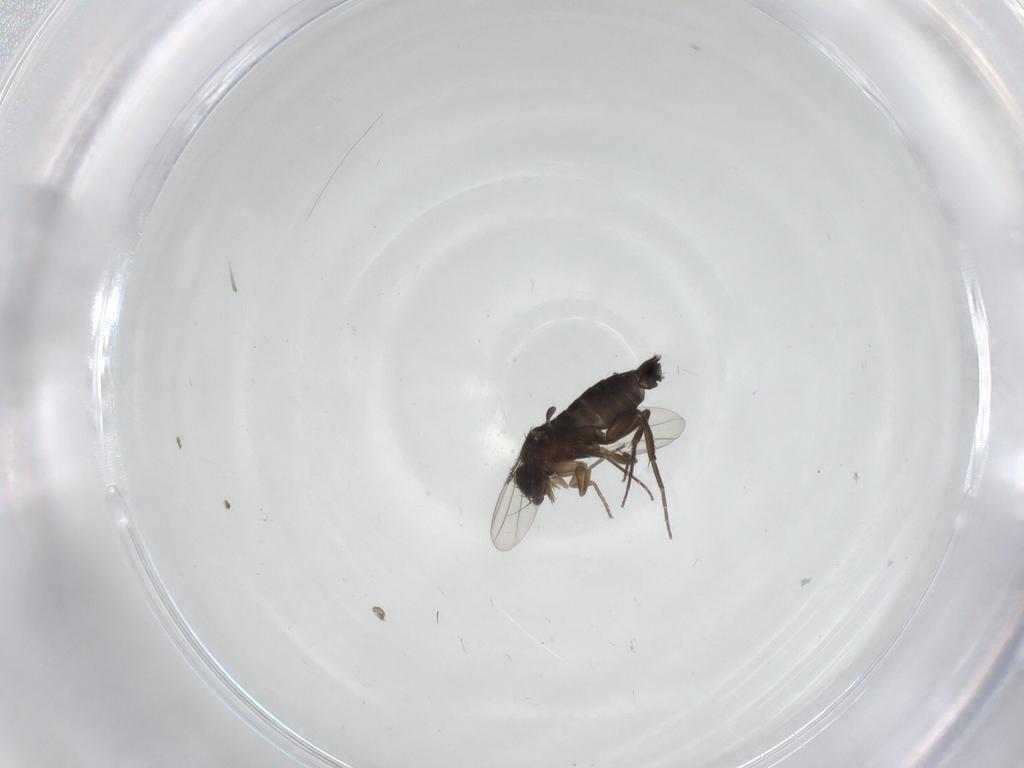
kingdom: Animalia
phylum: Arthropoda
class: Insecta
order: Diptera
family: Phoridae
